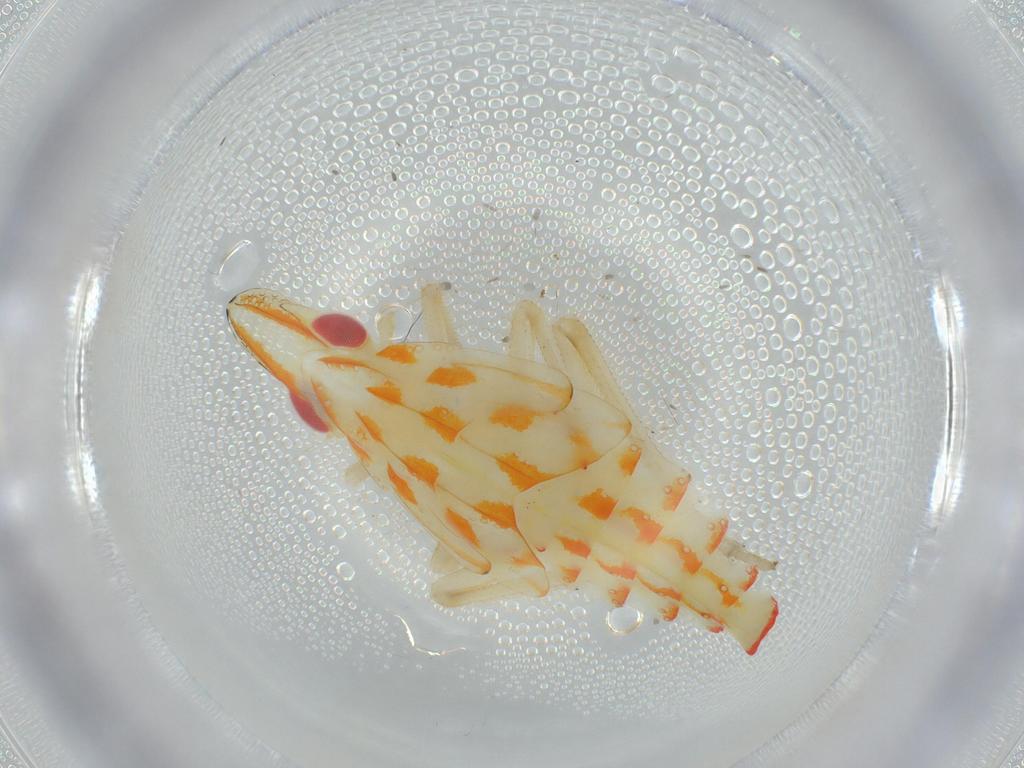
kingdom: Animalia
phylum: Arthropoda
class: Insecta
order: Hemiptera
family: Tropiduchidae
